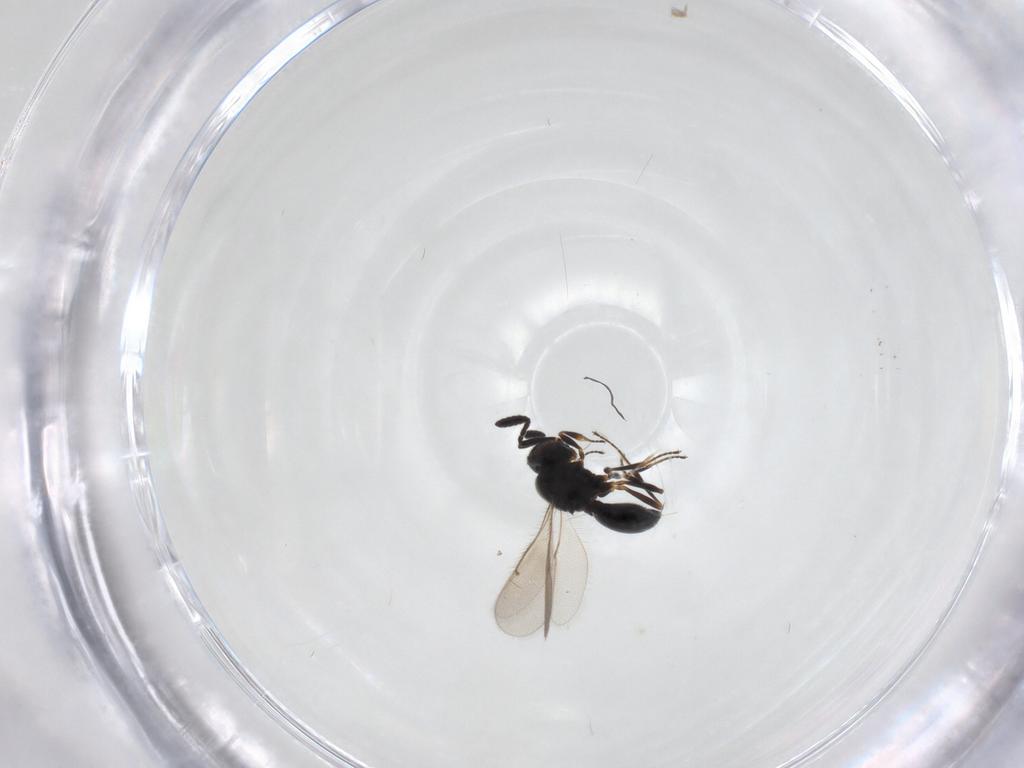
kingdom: Animalia
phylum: Arthropoda
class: Insecta
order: Hymenoptera
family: Scelionidae
